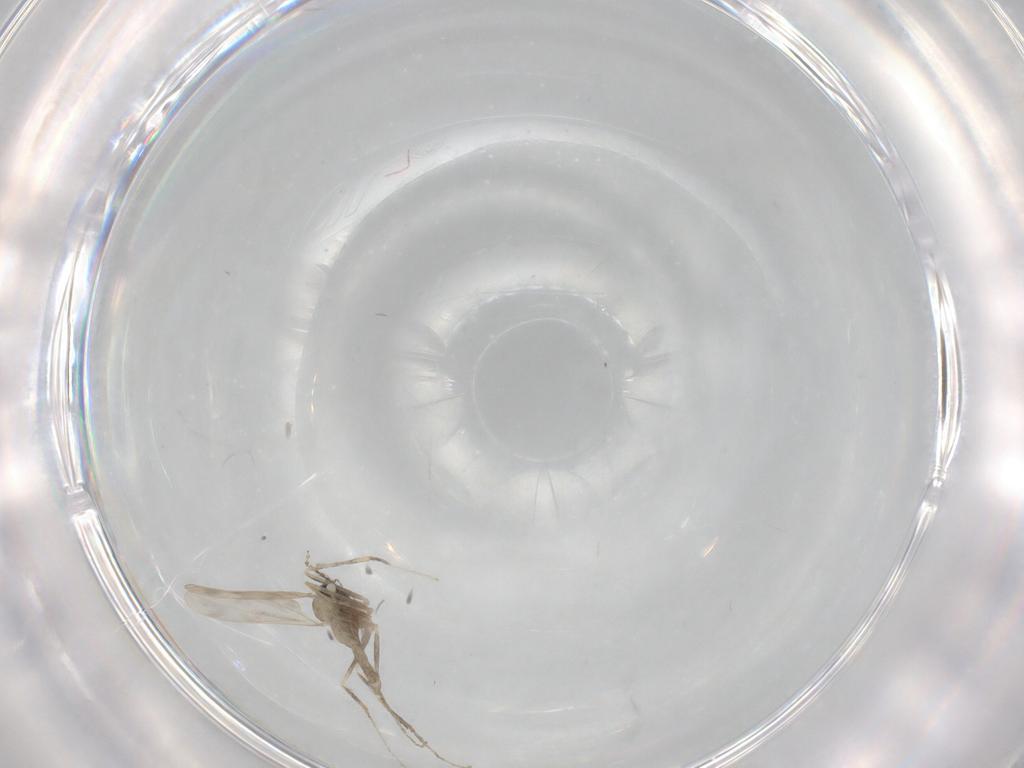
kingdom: Animalia
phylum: Arthropoda
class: Insecta
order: Diptera
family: Cecidomyiidae
